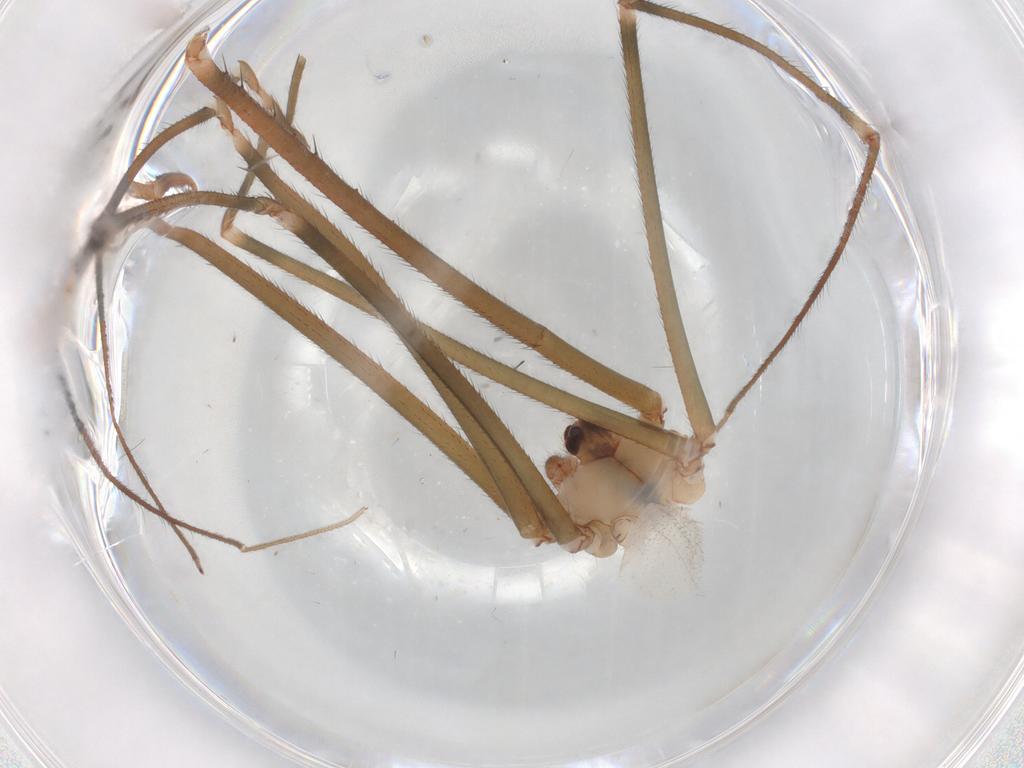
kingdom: Animalia
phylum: Arthropoda
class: Arachnida
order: Araneae
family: Pholcidae
